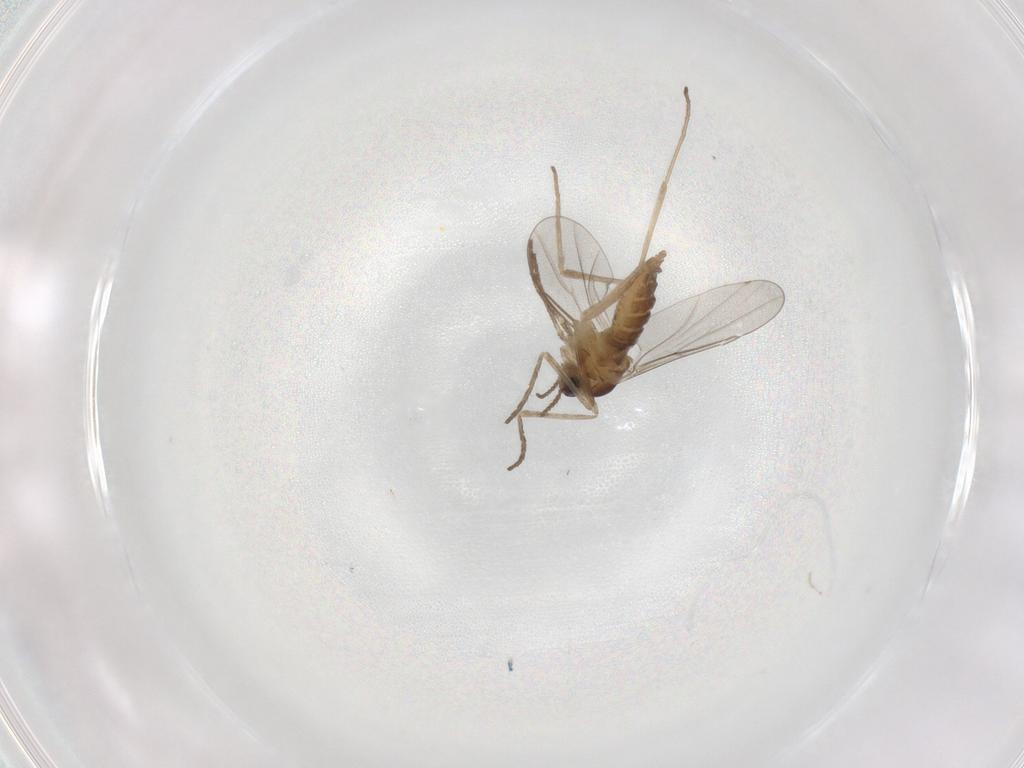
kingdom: Animalia
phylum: Arthropoda
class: Insecta
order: Diptera
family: Cecidomyiidae
